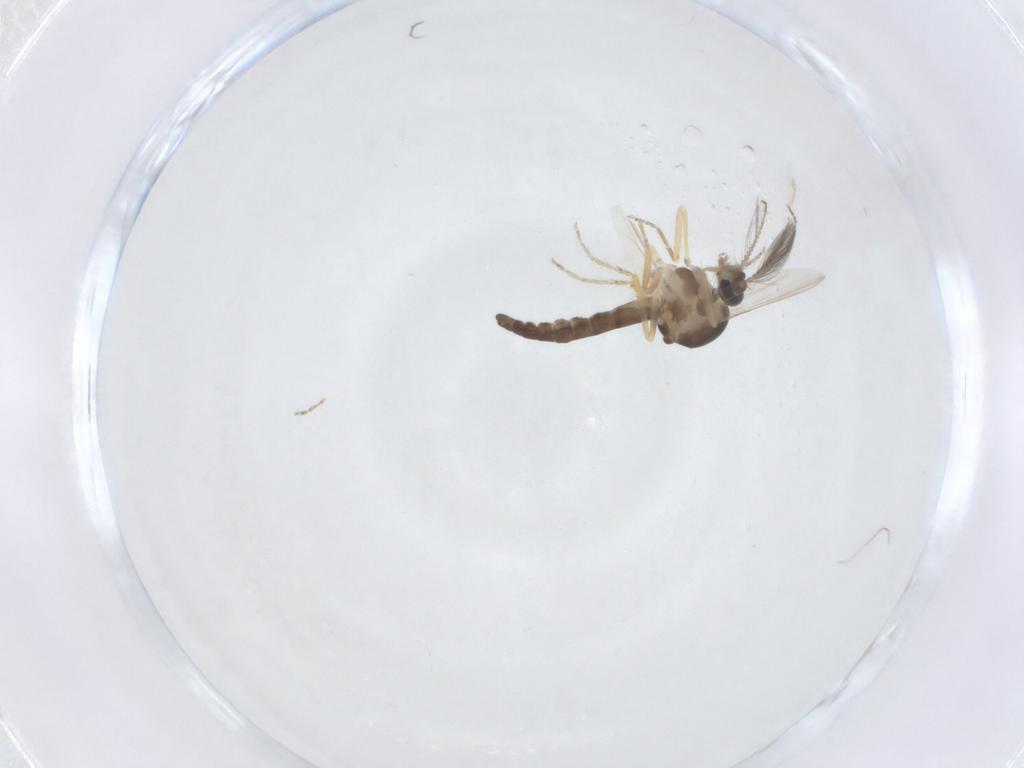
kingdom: Animalia
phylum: Arthropoda
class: Insecta
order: Diptera
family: Ceratopogonidae
